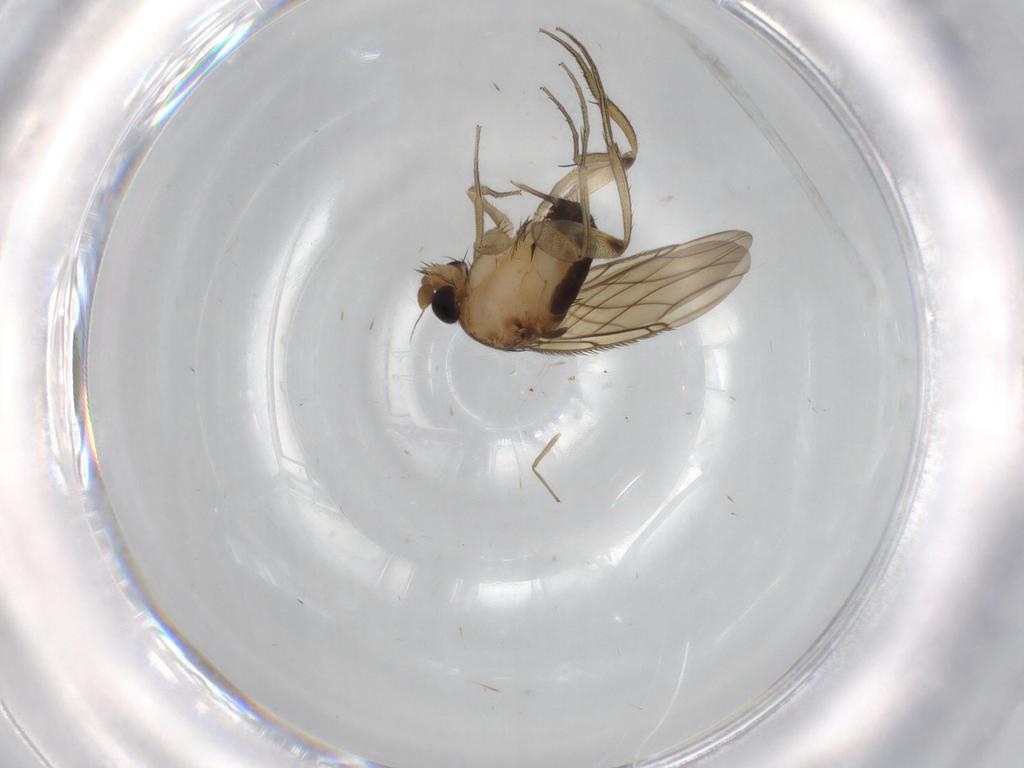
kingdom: Animalia
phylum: Arthropoda
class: Insecta
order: Diptera
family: Phoridae
